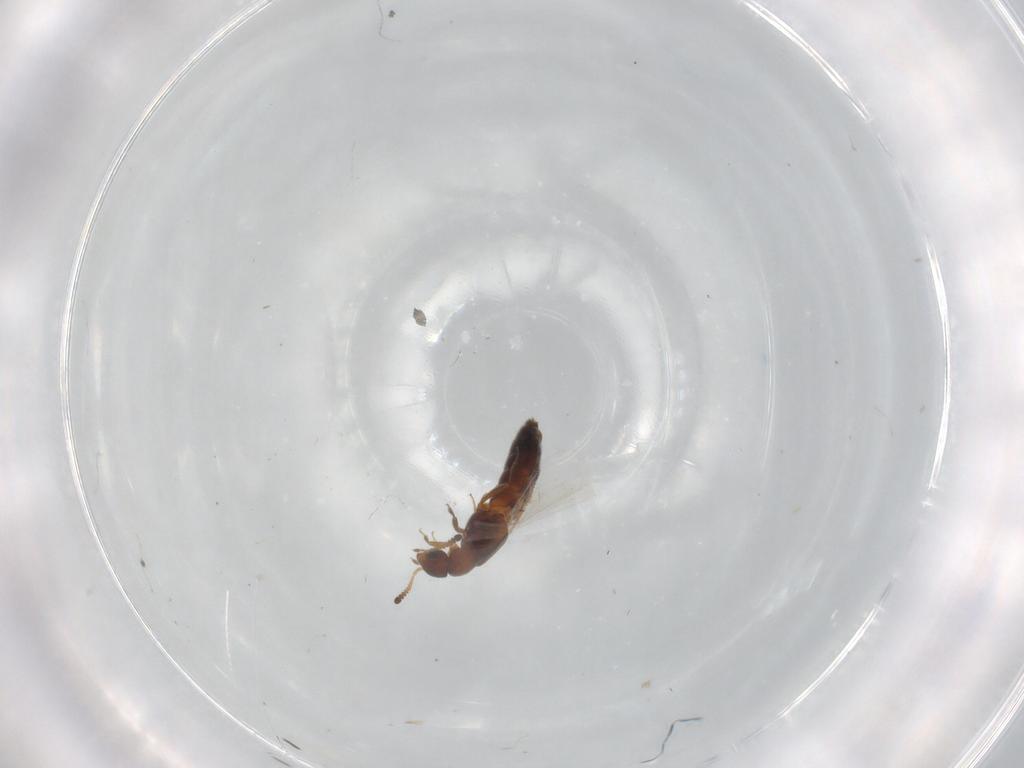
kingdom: Animalia
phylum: Arthropoda
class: Insecta
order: Coleoptera
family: Staphylinidae
